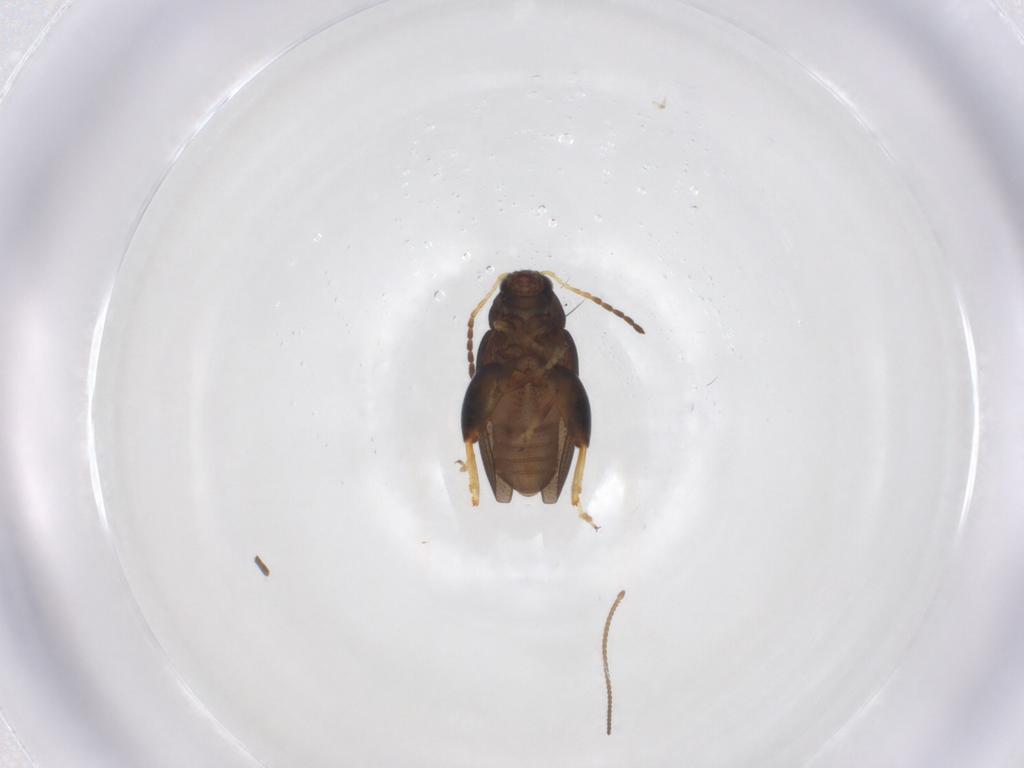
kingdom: Animalia
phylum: Arthropoda
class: Insecta
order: Coleoptera
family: Chrysomelidae
